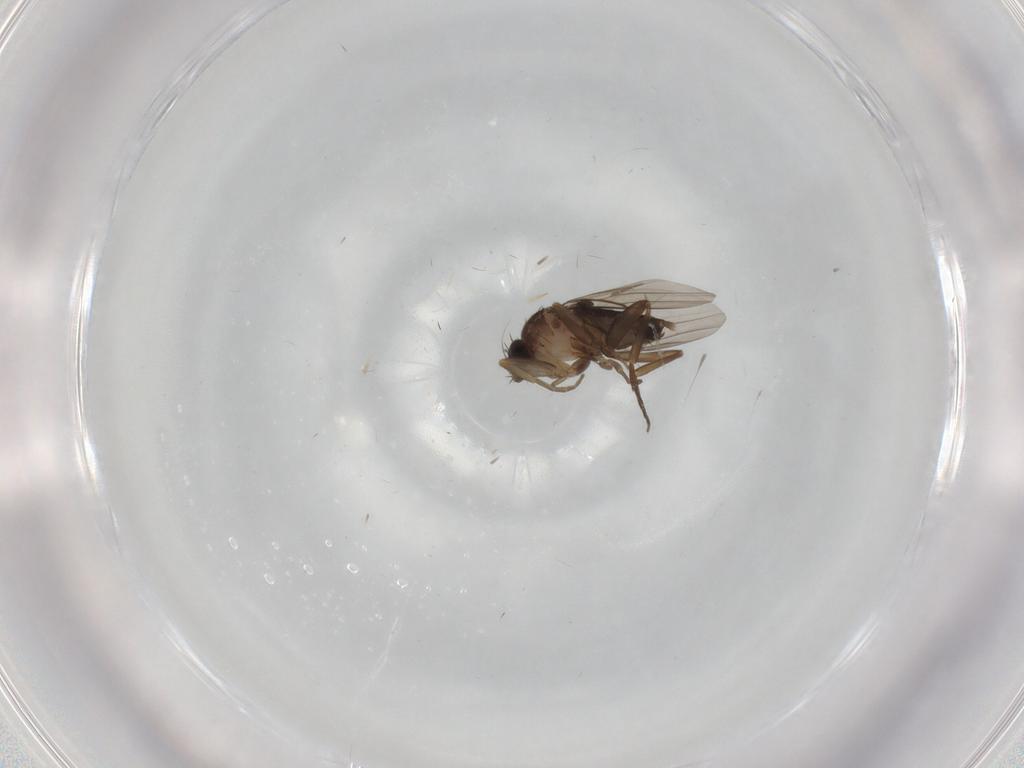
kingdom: Animalia
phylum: Arthropoda
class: Insecta
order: Diptera
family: Phoridae
